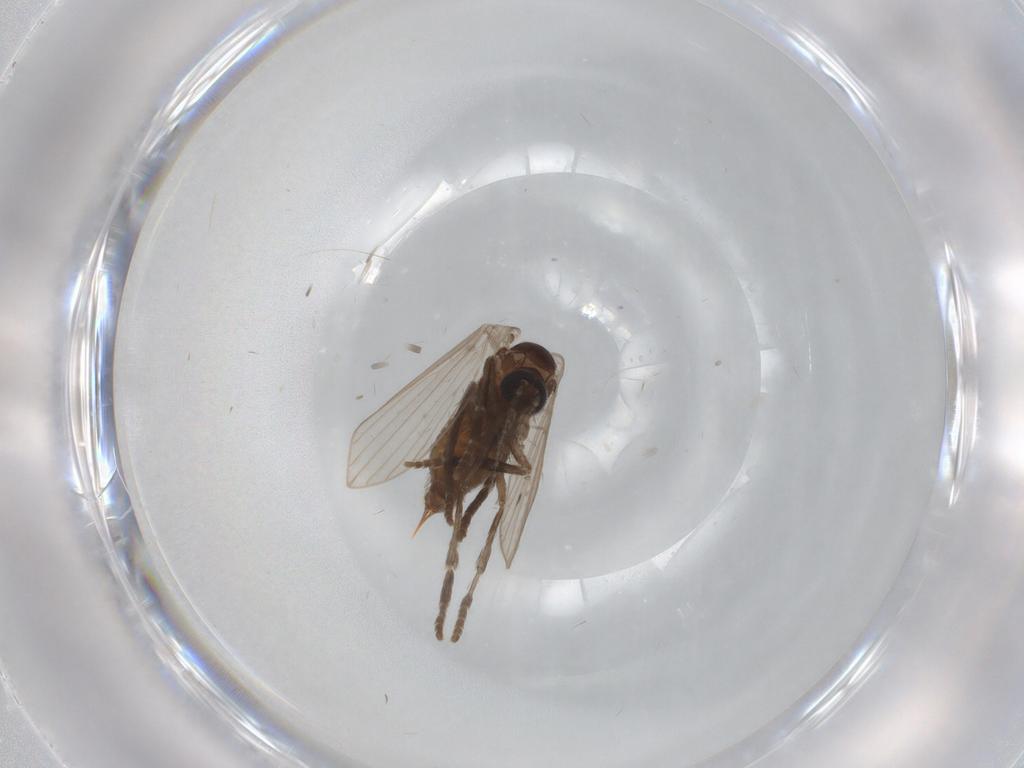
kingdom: Animalia
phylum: Arthropoda
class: Insecta
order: Diptera
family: Psychodidae
